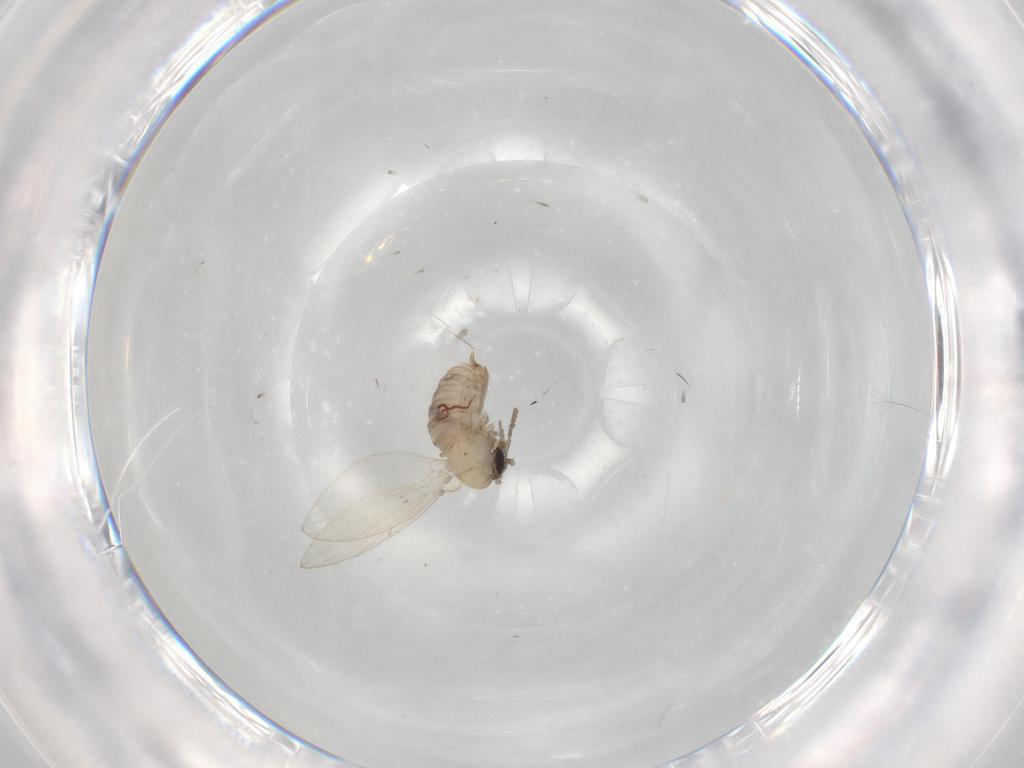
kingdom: Animalia
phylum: Arthropoda
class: Insecta
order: Diptera
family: Psychodidae
